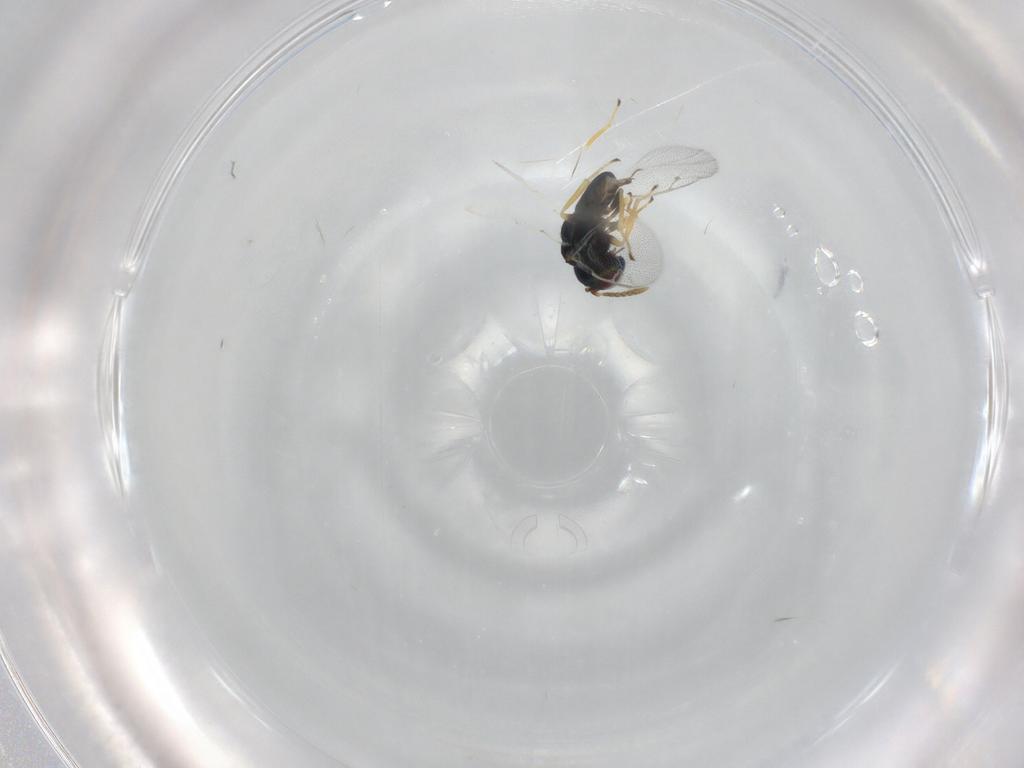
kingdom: Animalia
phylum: Arthropoda
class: Insecta
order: Hymenoptera
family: Pteromalidae
